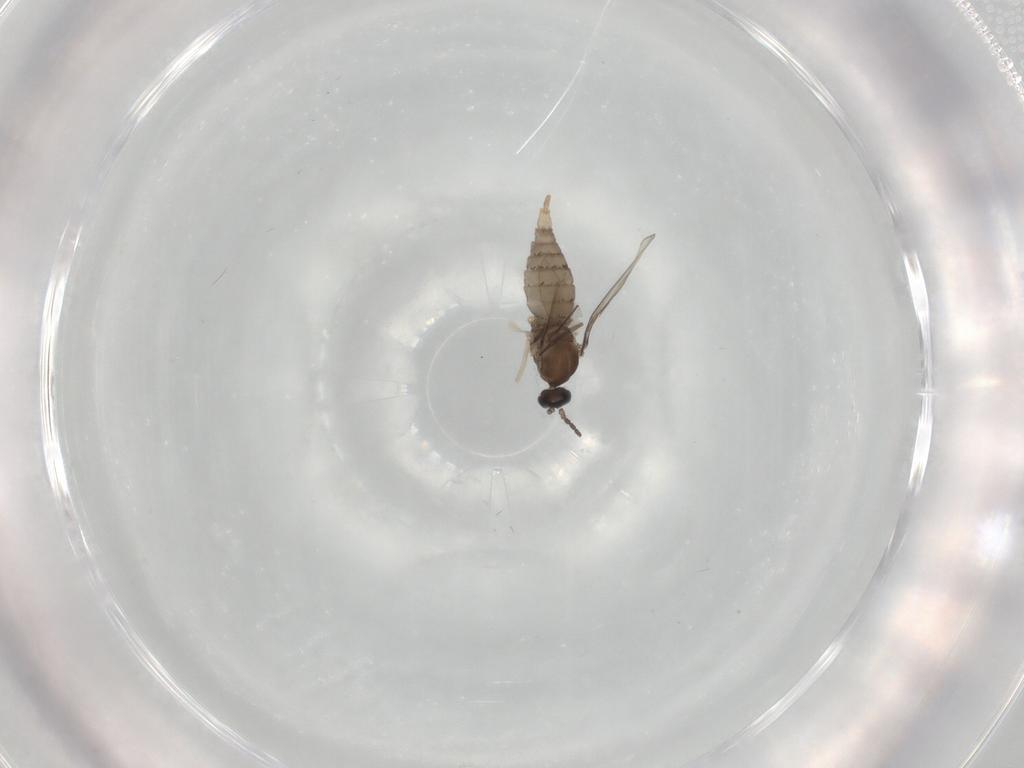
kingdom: Animalia
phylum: Arthropoda
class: Insecta
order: Diptera
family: Cecidomyiidae
